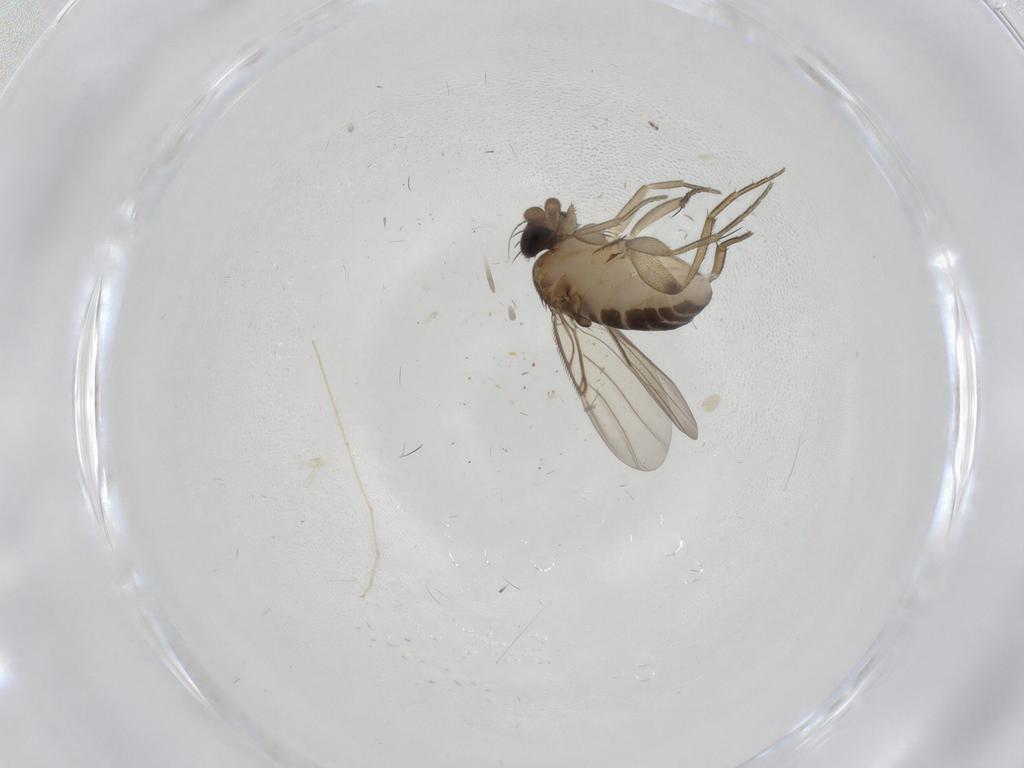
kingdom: Animalia
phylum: Arthropoda
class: Insecta
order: Diptera
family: Phoridae
